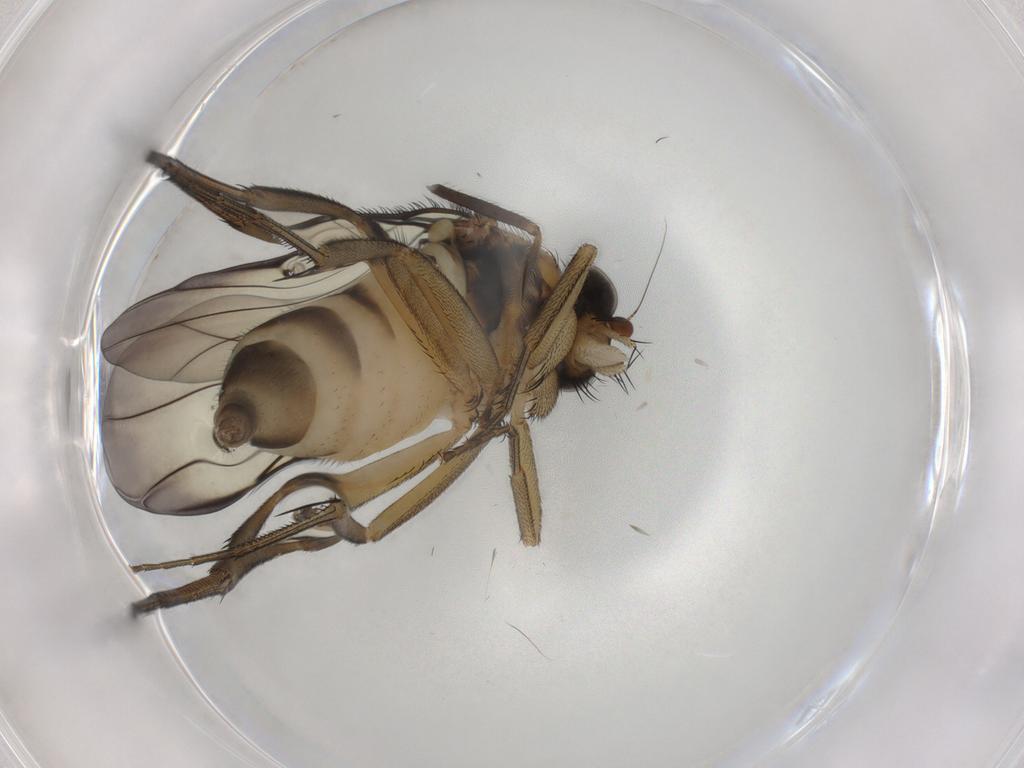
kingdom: Animalia
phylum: Arthropoda
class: Insecta
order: Diptera
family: Phoridae
